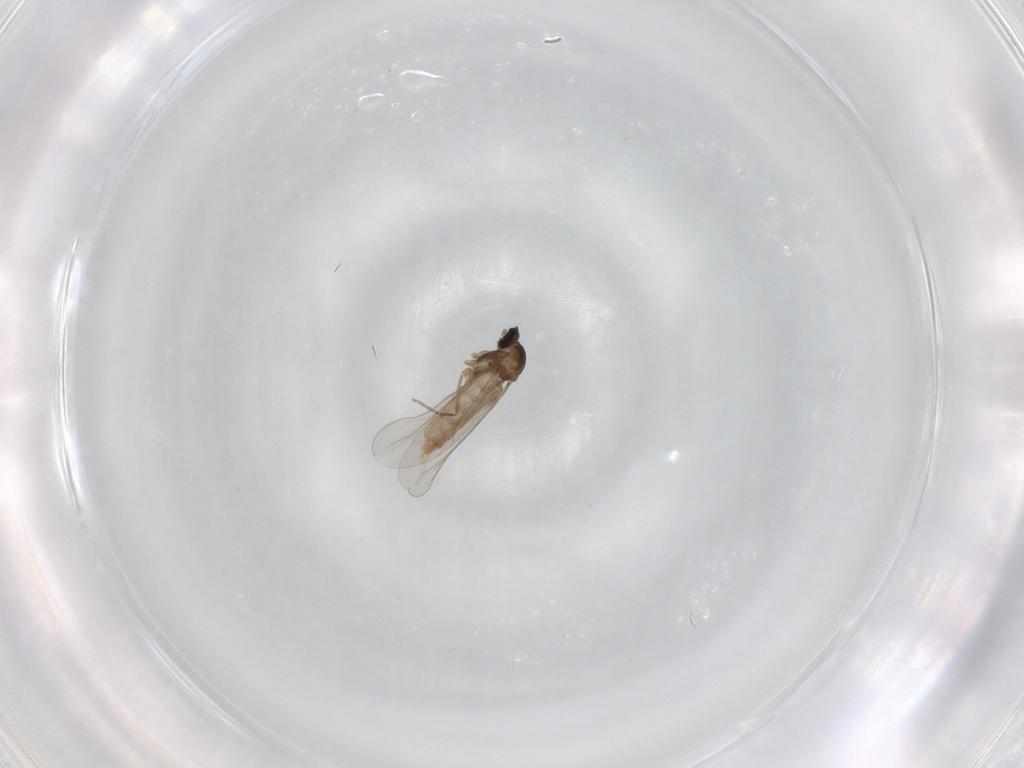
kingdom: Animalia
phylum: Arthropoda
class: Insecta
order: Diptera
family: Cecidomyiidae
